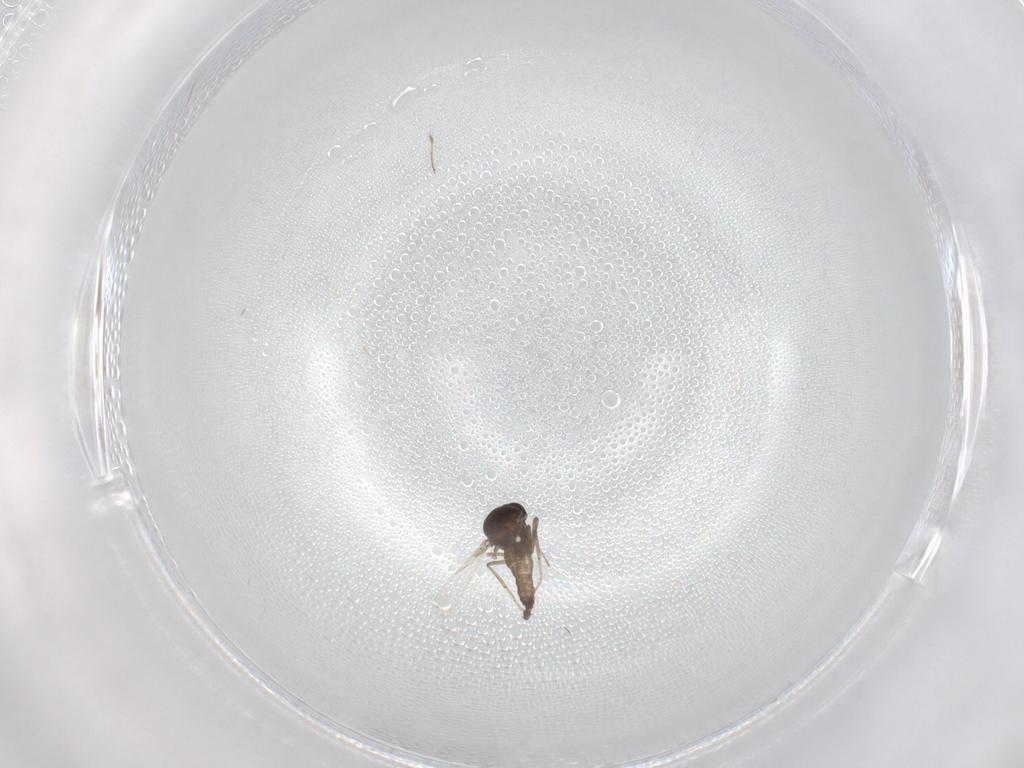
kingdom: Animalia
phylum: Arthropoda
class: Insecta
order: Diptera
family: Ceratopogonidae
